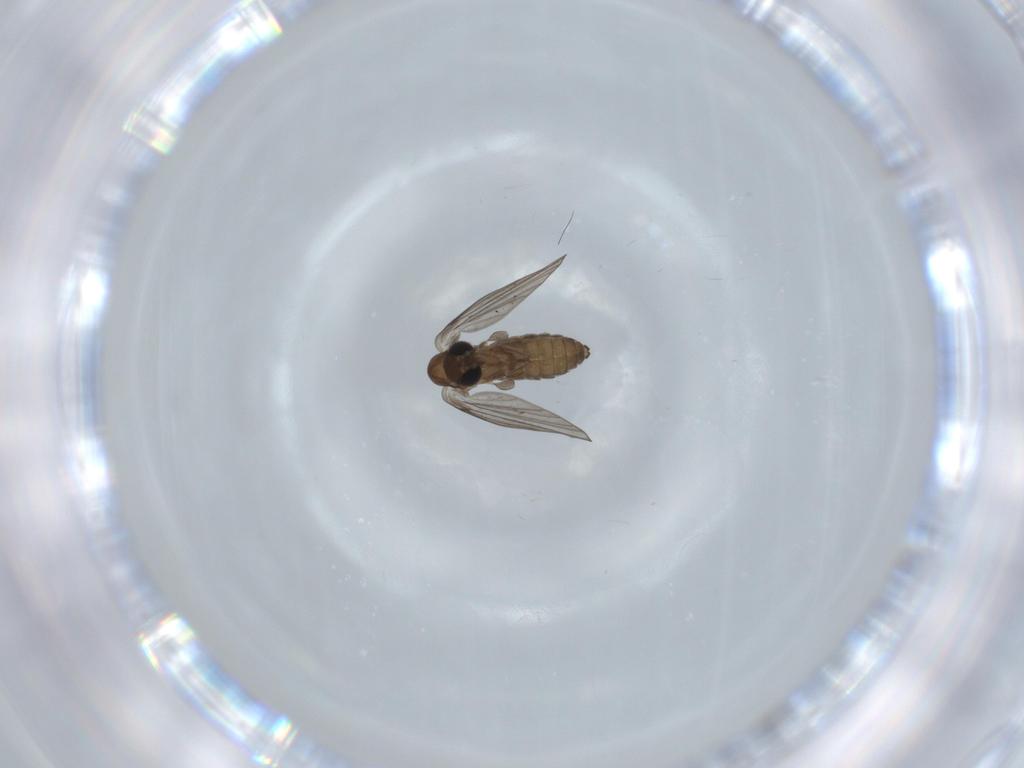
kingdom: Animalia
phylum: Arthropoda
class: Insecta
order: Diptera
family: Psychodidae
